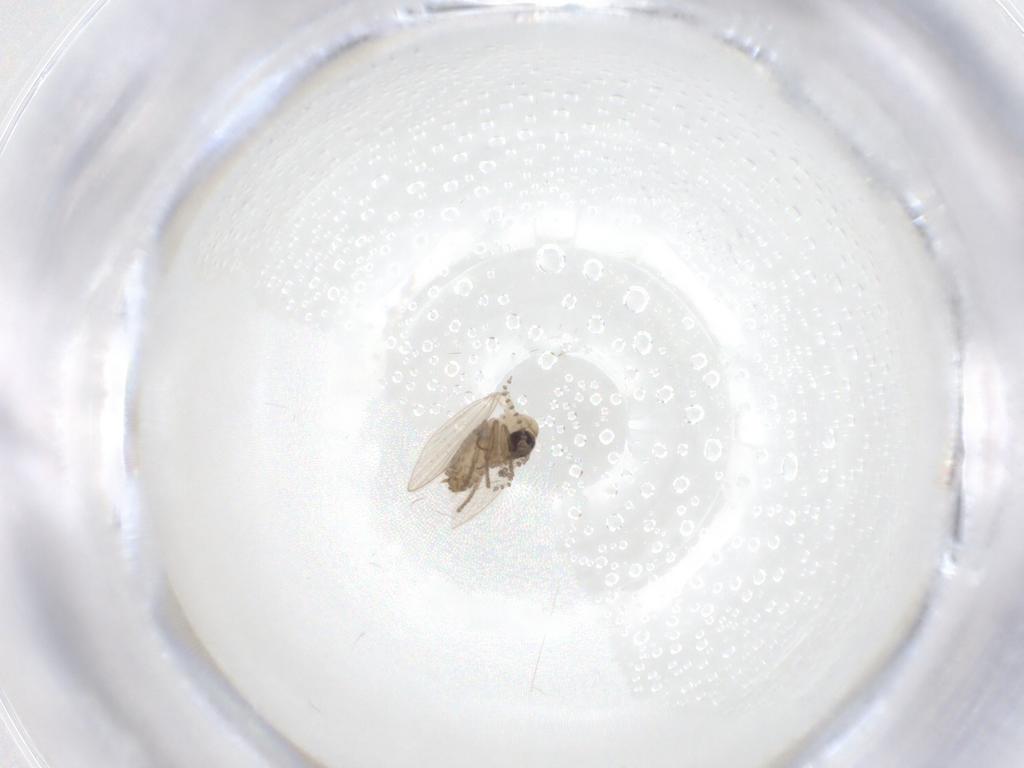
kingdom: Animalia
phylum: Arthropoda
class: Insecta
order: Diptera
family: Psychodidae
